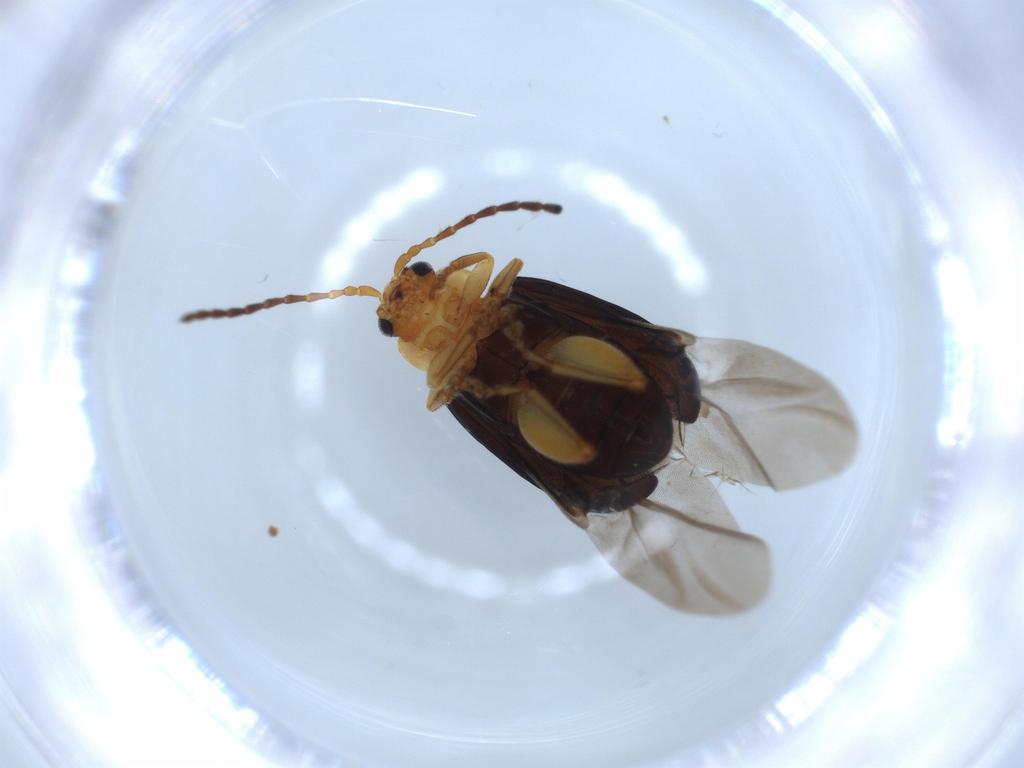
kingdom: Animalia
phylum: Arthropoda
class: Insecta
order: Coleoptera
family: Chrysomelidae
